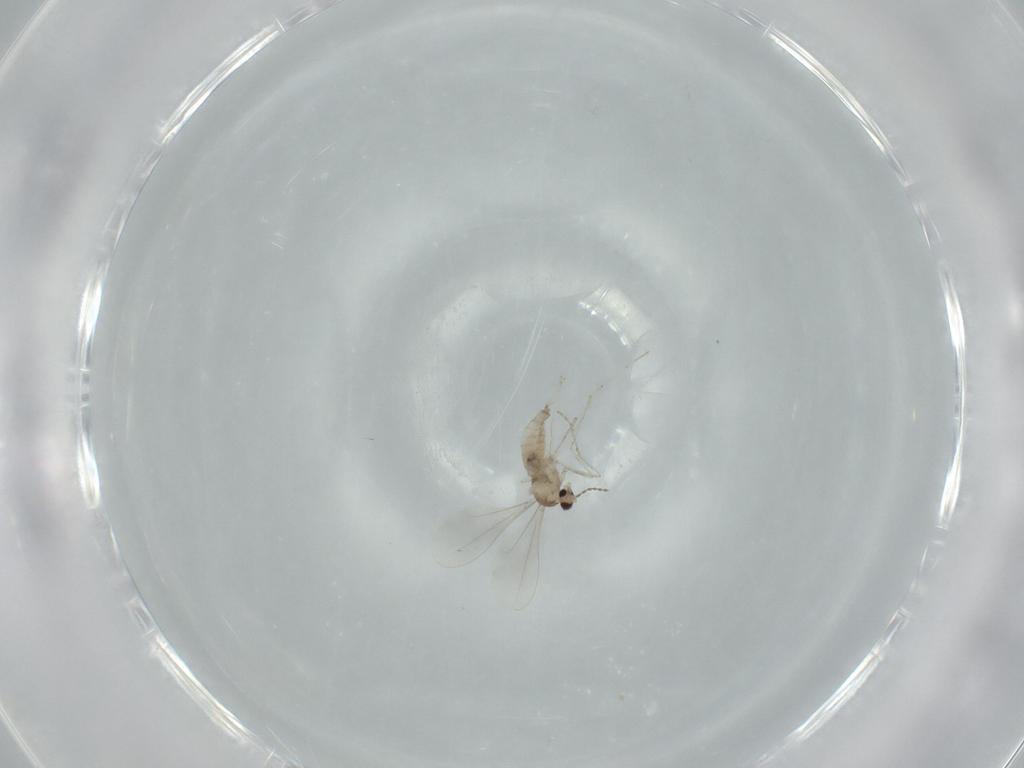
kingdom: Animalia
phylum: Arthropoda
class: Insecta
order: Diptera
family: Cecidomyiidae
